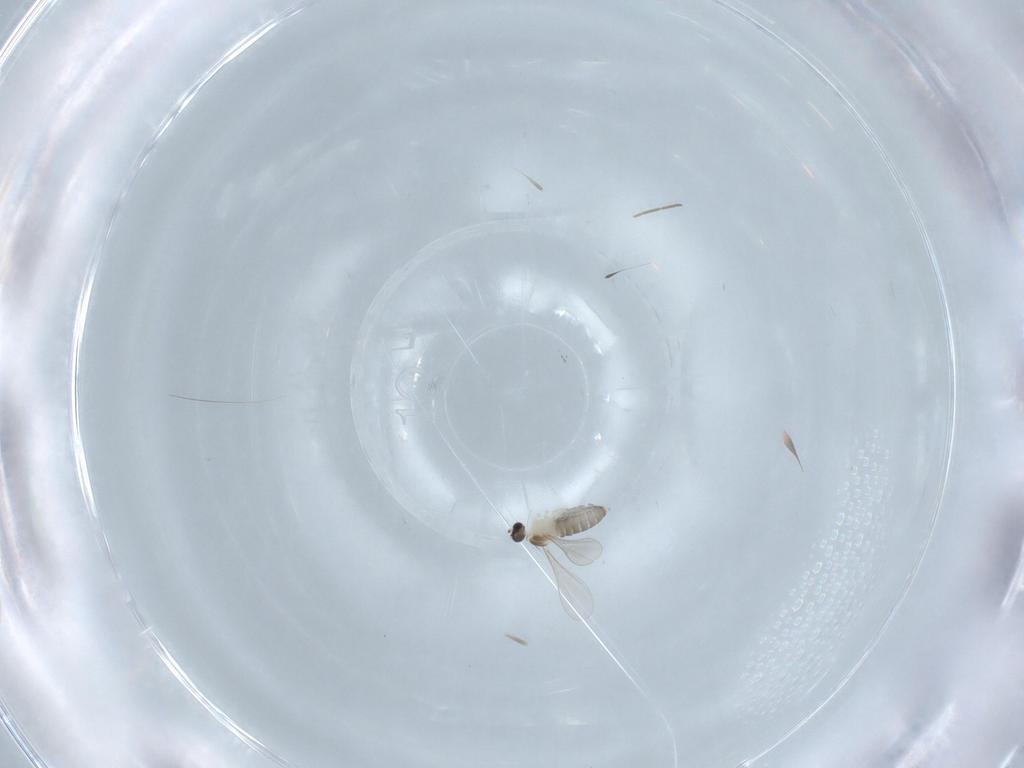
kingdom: Animalia
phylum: Arthropoda
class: Insecta
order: Diptera
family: Cecidomyiidae
